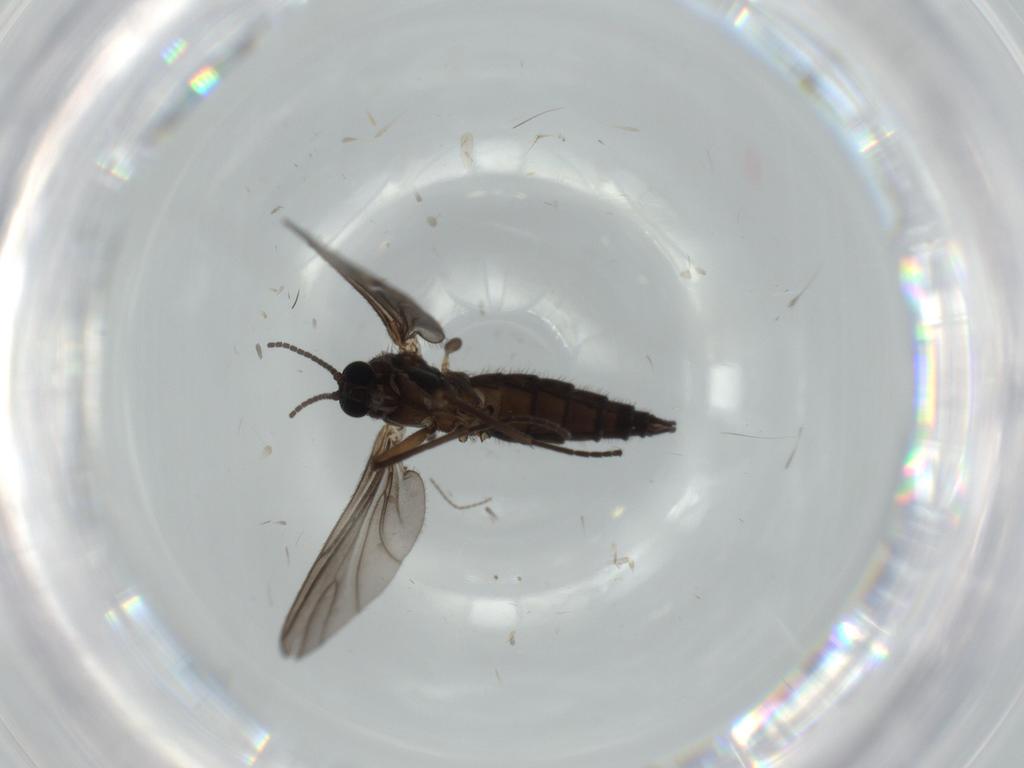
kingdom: Animalia
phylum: Arthropoda
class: Insecta
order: Diptera
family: Sciaridae
